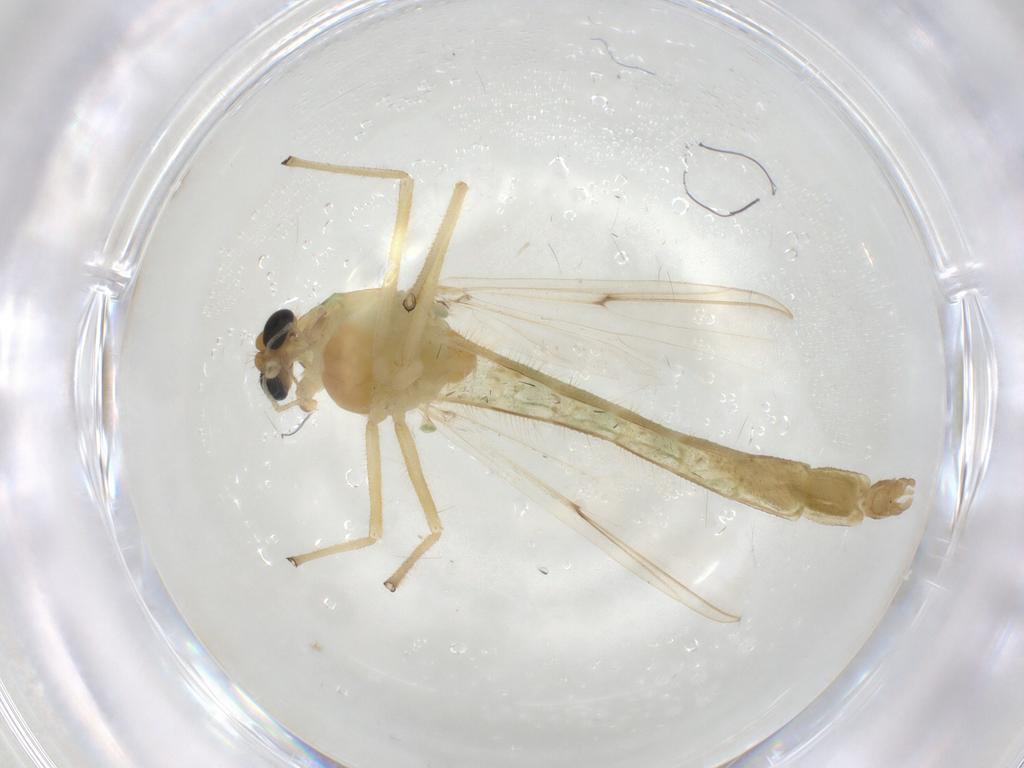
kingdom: Animalia
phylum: Arthropoda
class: Insecta
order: Diptera
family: Chironomidae
